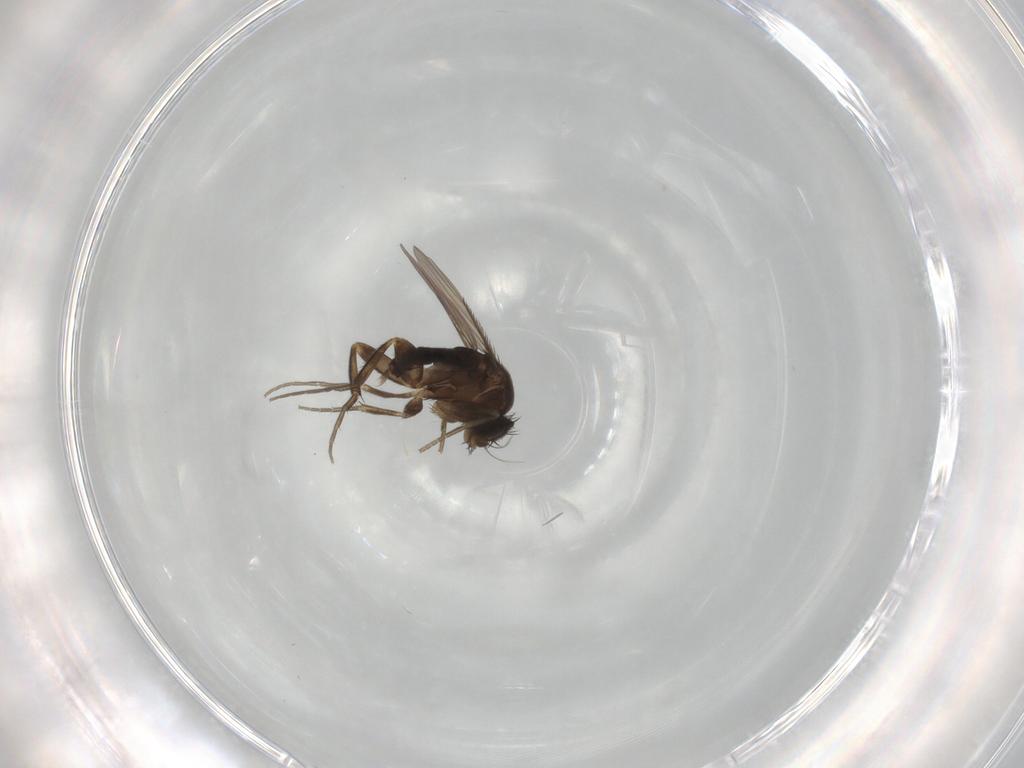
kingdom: Animalia
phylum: Arthropoda
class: Insecta
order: Diptera
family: Phoridae
